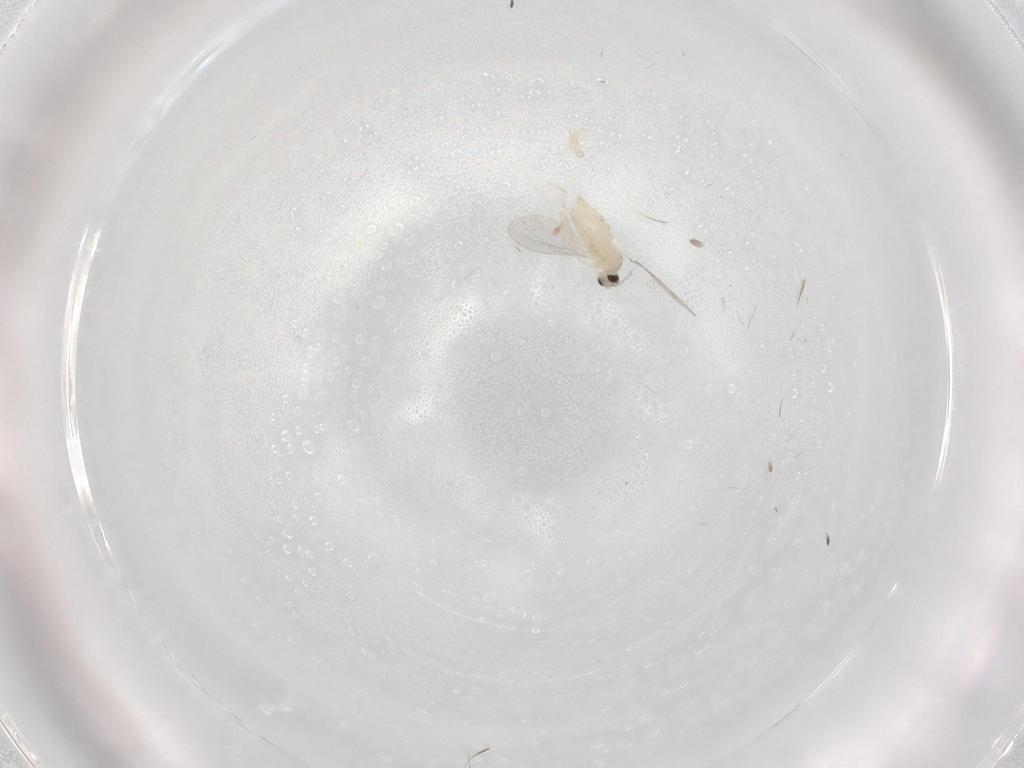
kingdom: Animalia
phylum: Arthropoda
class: Insecta
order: Diptera
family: Cecidomyiidae
